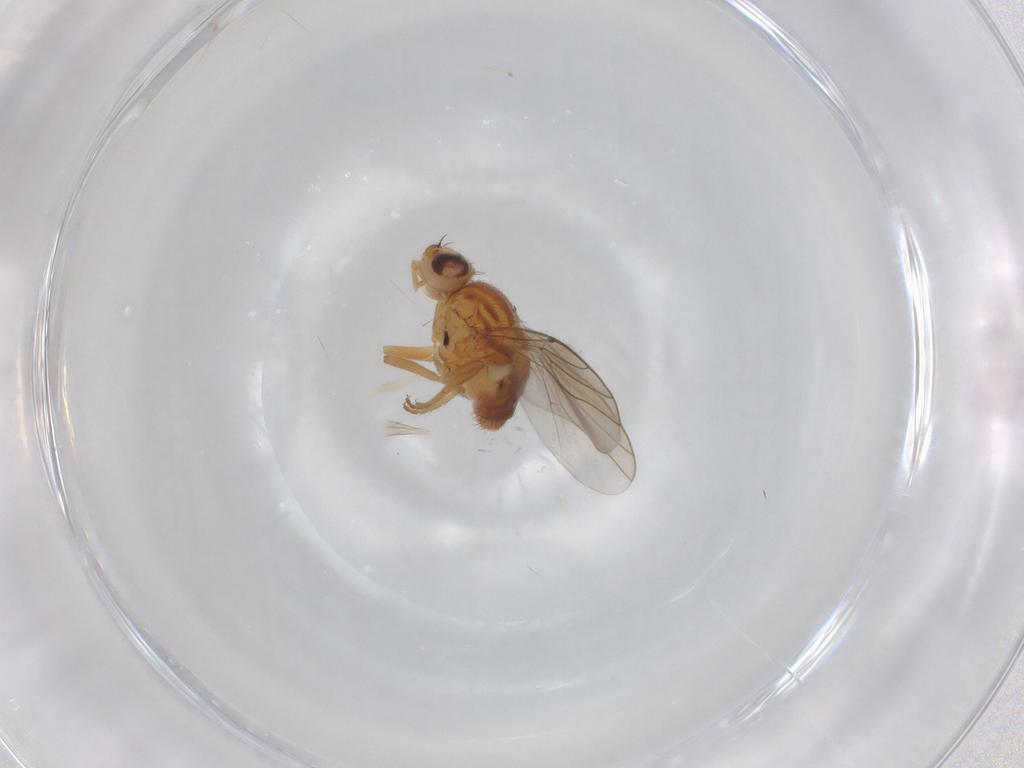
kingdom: Animalia
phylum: Arthropoda
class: Insecta
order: Diptera
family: Chloropidae
